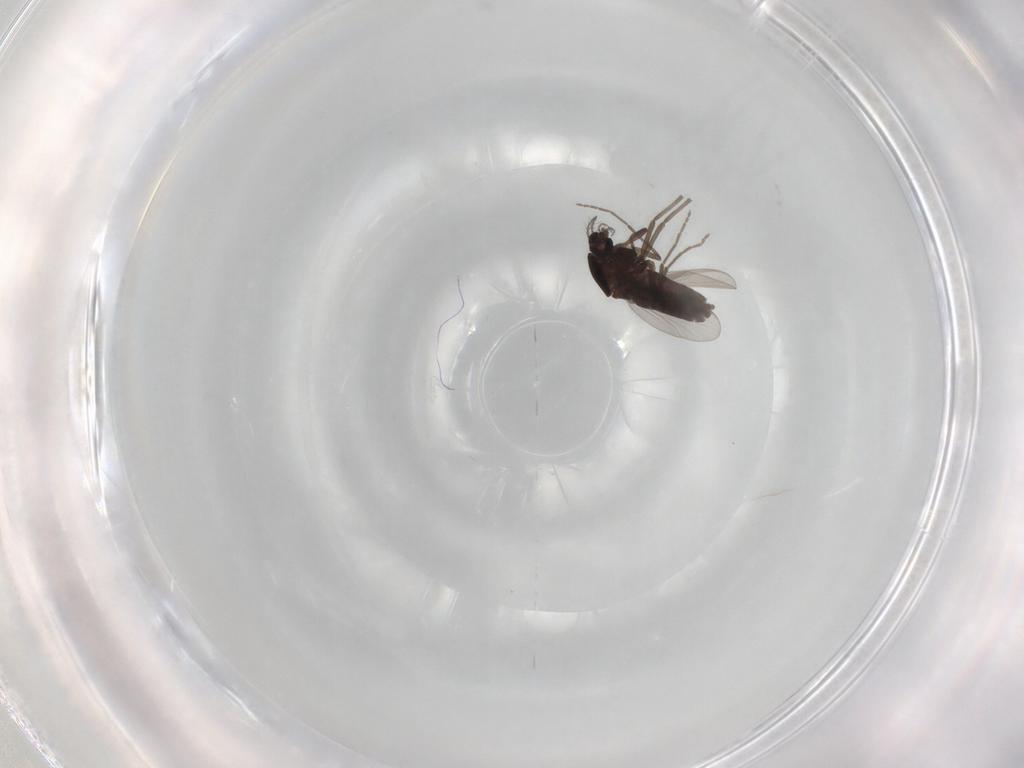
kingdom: Animalia
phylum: Arthropoda
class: Insecta
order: Diptera
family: Chironomidae
